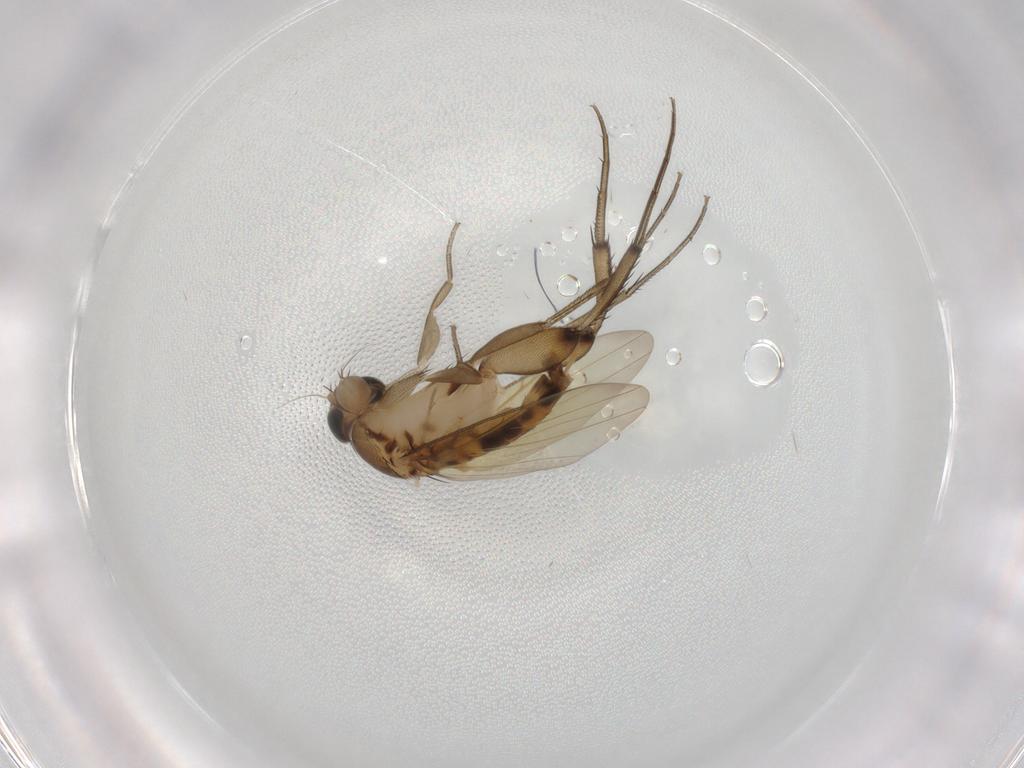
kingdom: Animalia
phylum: Arthropoda
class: Insecta
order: Diptera
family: Phoridae
